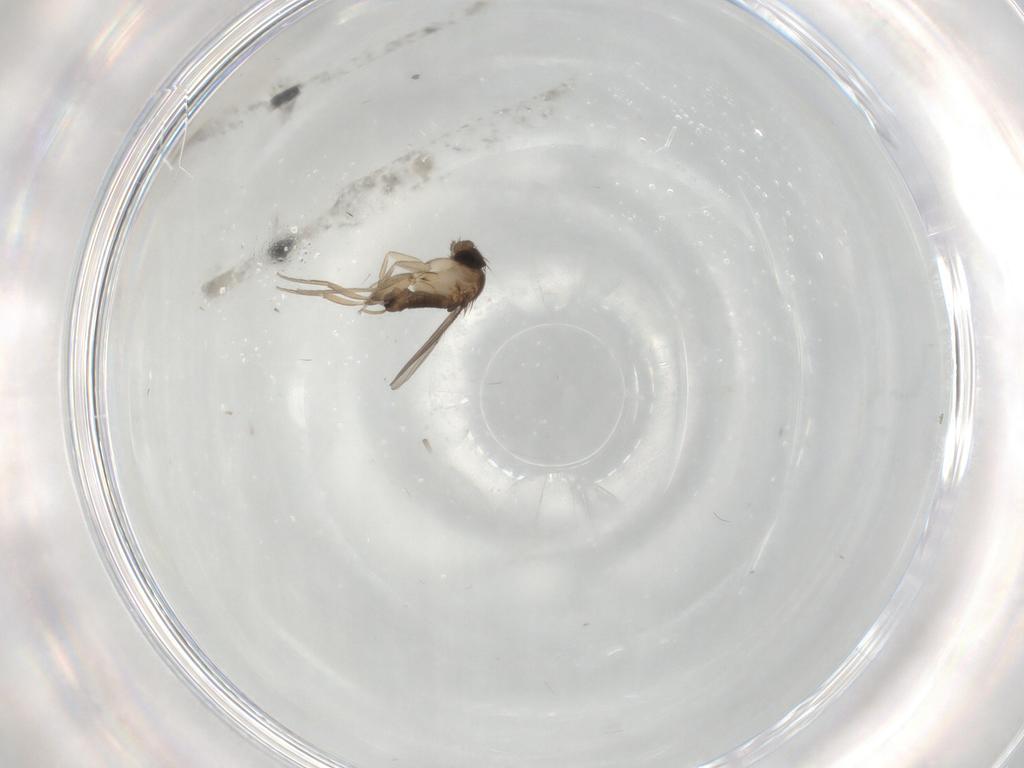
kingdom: Animalia
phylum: Arthropoda
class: Insecta
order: Diptera
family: Phoridae
